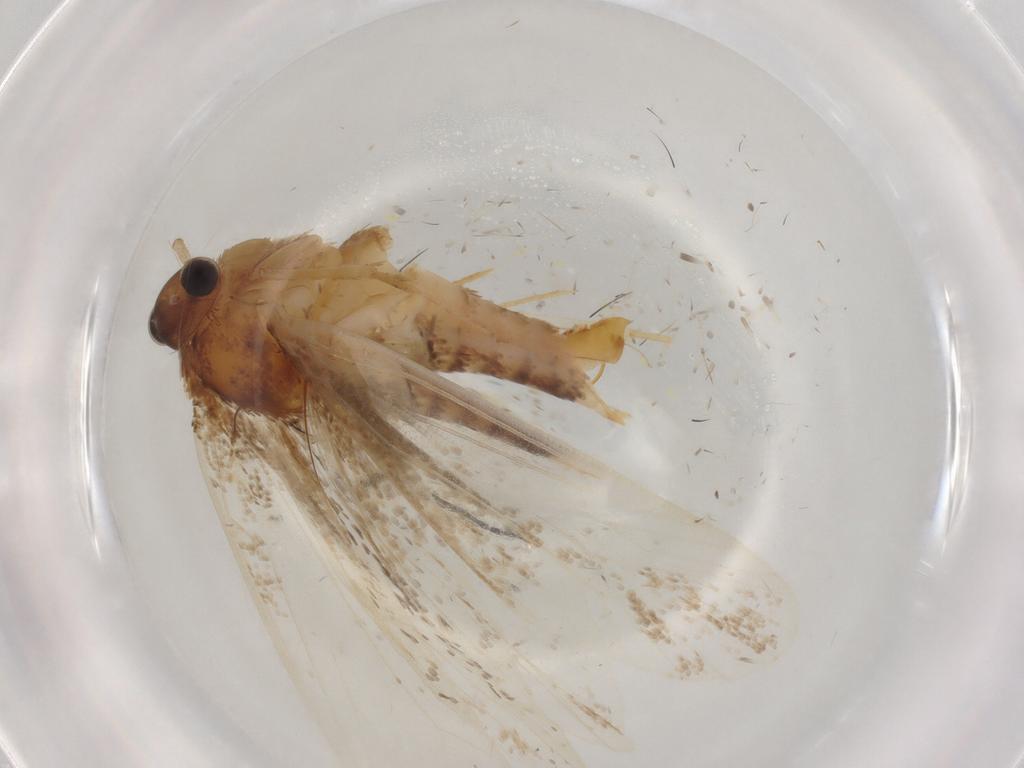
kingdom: Animalia
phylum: Arthropoda
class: Insecta
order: Lepidoptera
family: Nepticulidae
